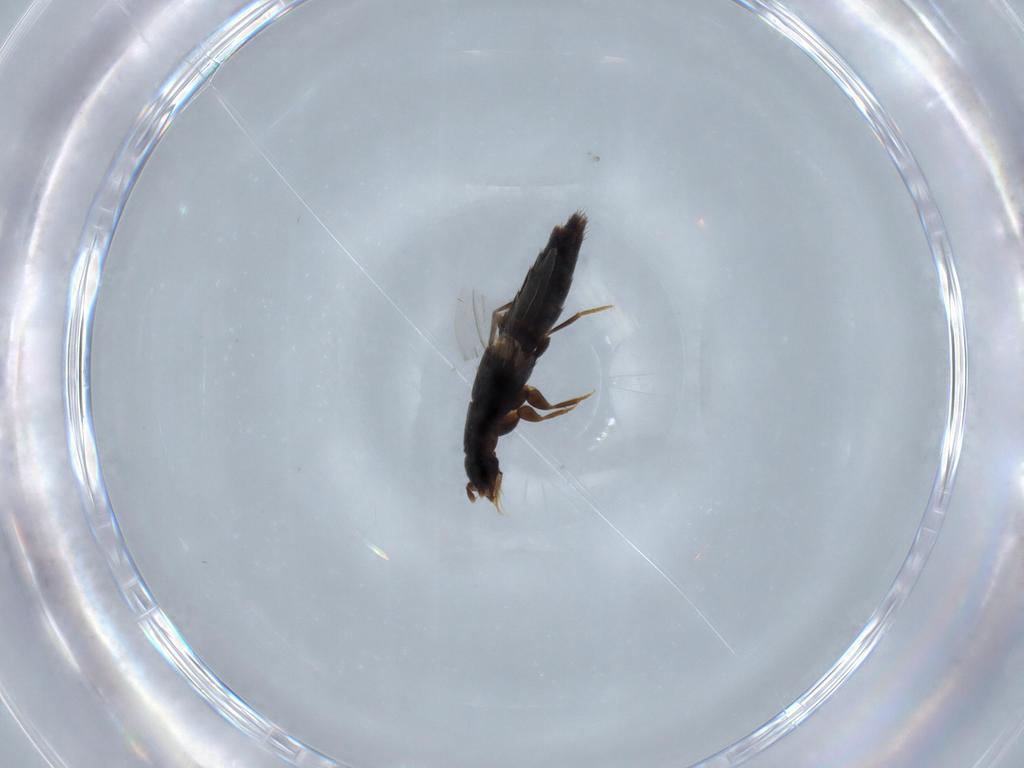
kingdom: Animalia
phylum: Arthropoda
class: Insecta
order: Coleoptera
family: Staphylinidae
